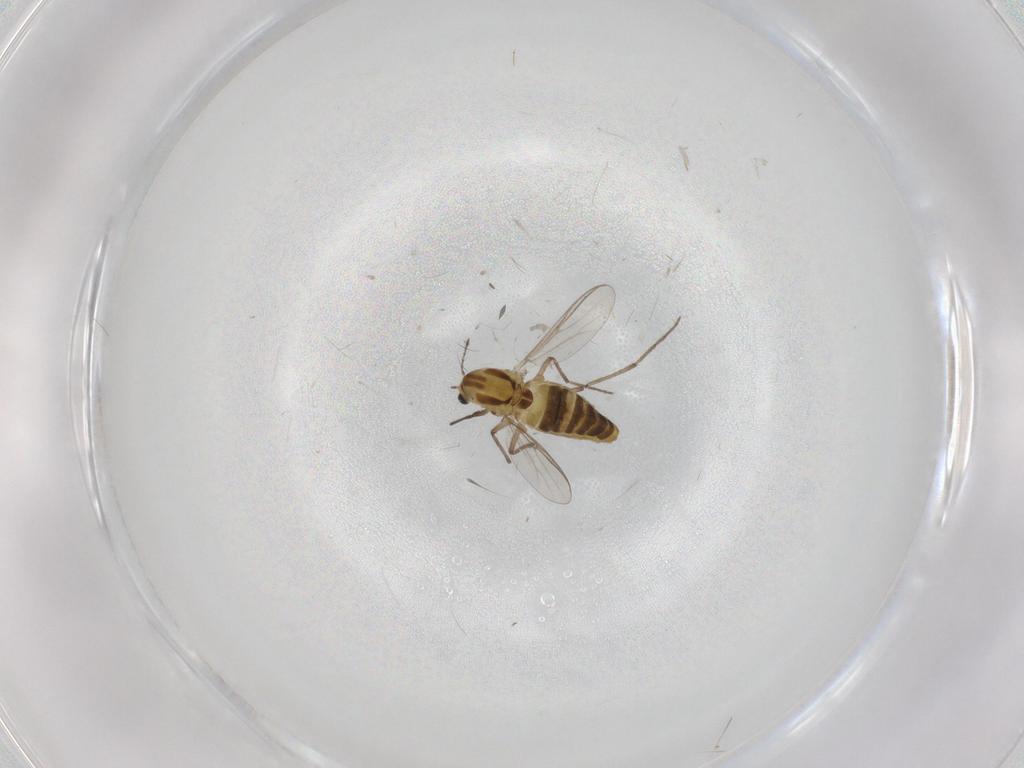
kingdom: Animalia
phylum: Arthropoda
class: Insecta
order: Diptera
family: Chironomidae
